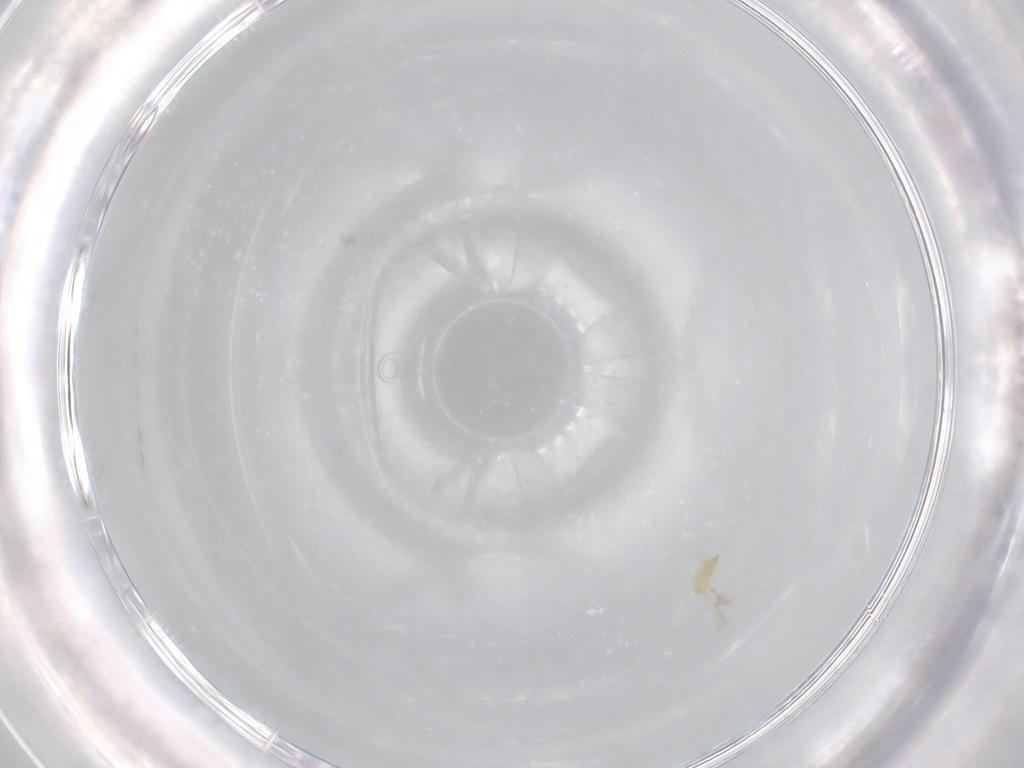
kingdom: Animalia
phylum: Arthropoda
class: Insecta
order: Hymenoptera
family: Mymaridae
